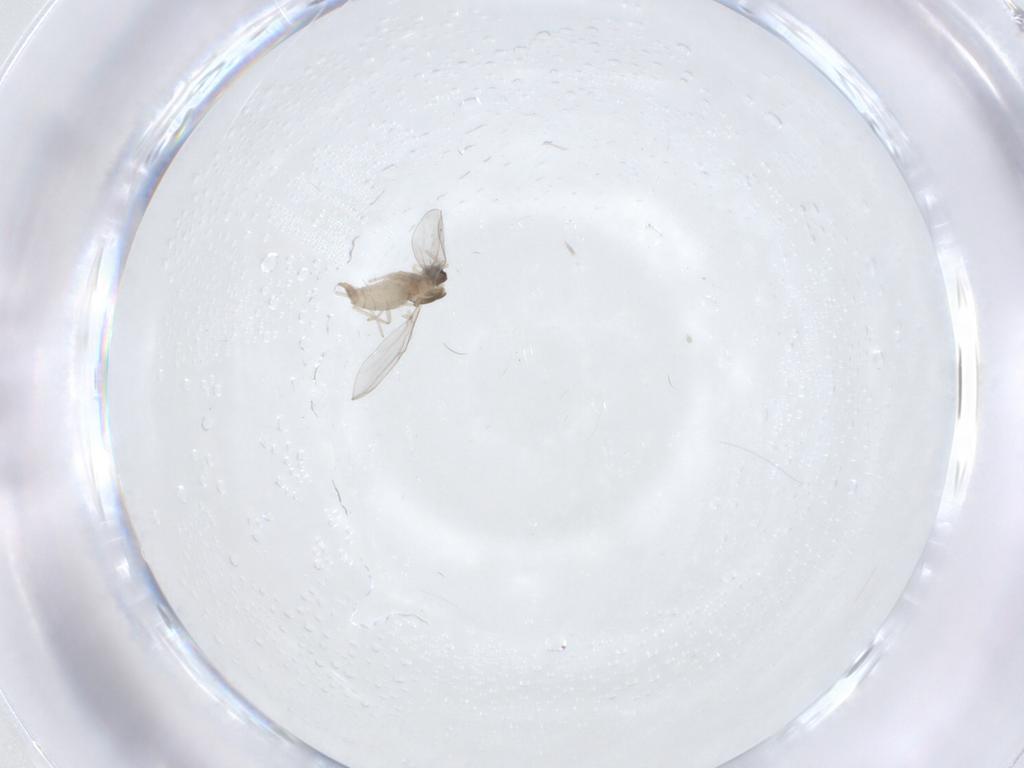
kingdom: Animalia
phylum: Arthropoda
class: Insecta
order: Diptera
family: Cecidomyiidae
